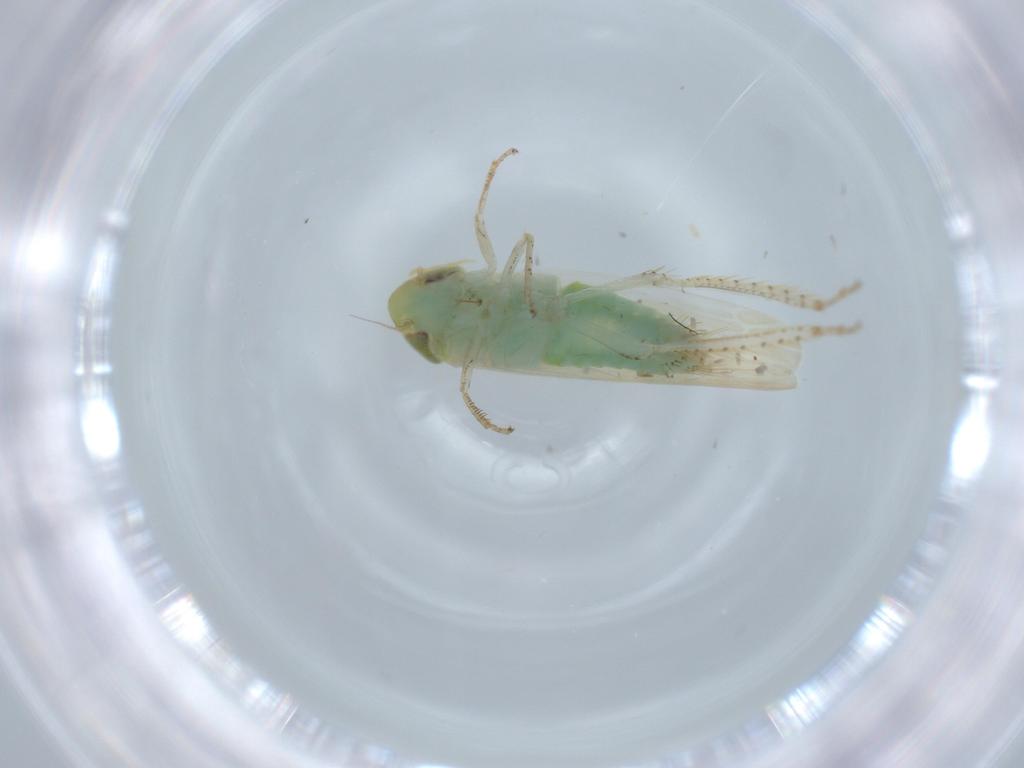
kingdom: Animalia
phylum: Arthropoda
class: Insecta
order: Hemiptera
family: Cicadellidae
